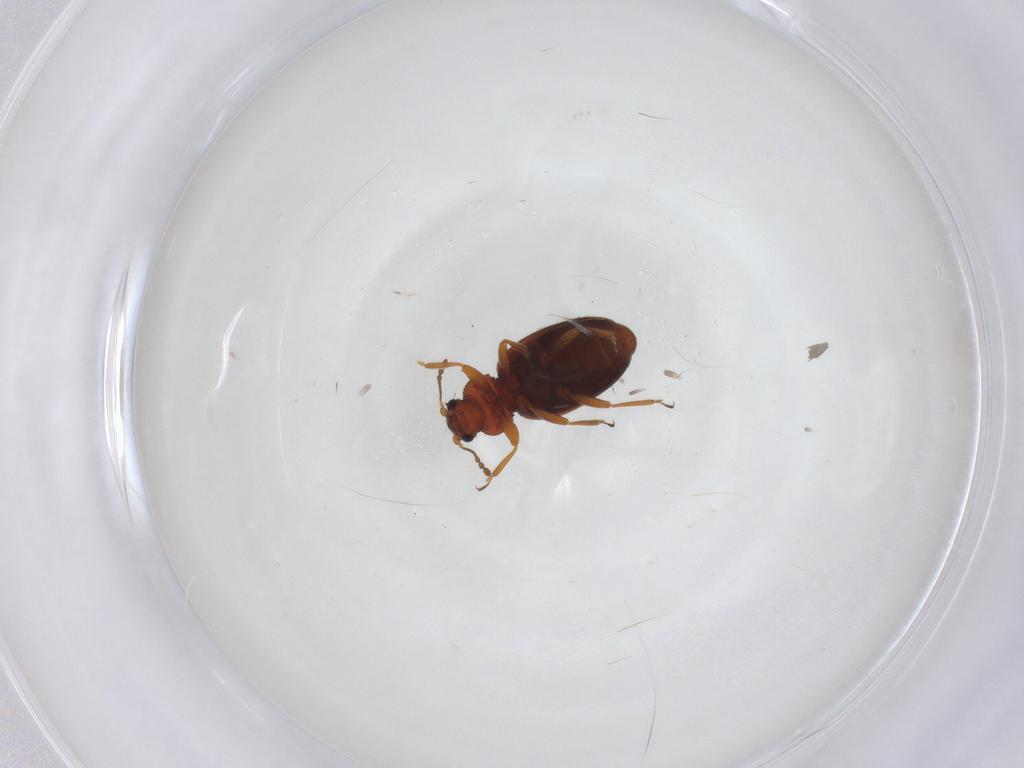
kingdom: Animalia
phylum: Arthropoda
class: Insecta
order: Coleoptera
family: Latridiidae
